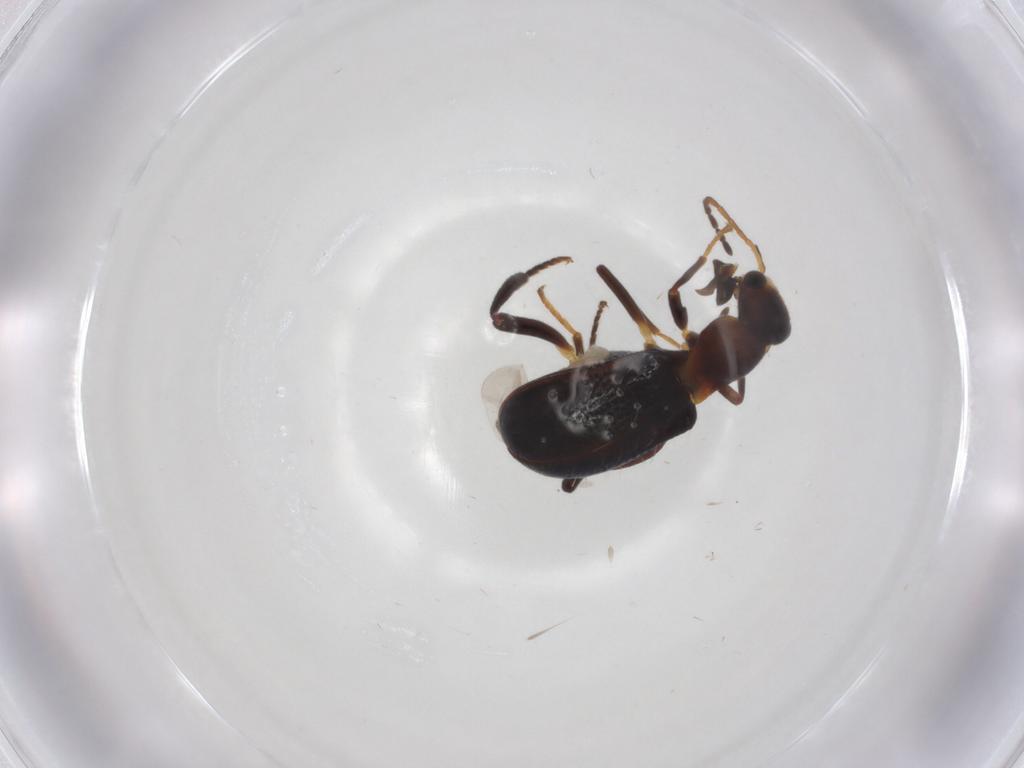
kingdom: Animalia
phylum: Arthropoda
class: Insecta
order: Coleoptera
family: Melyridae
